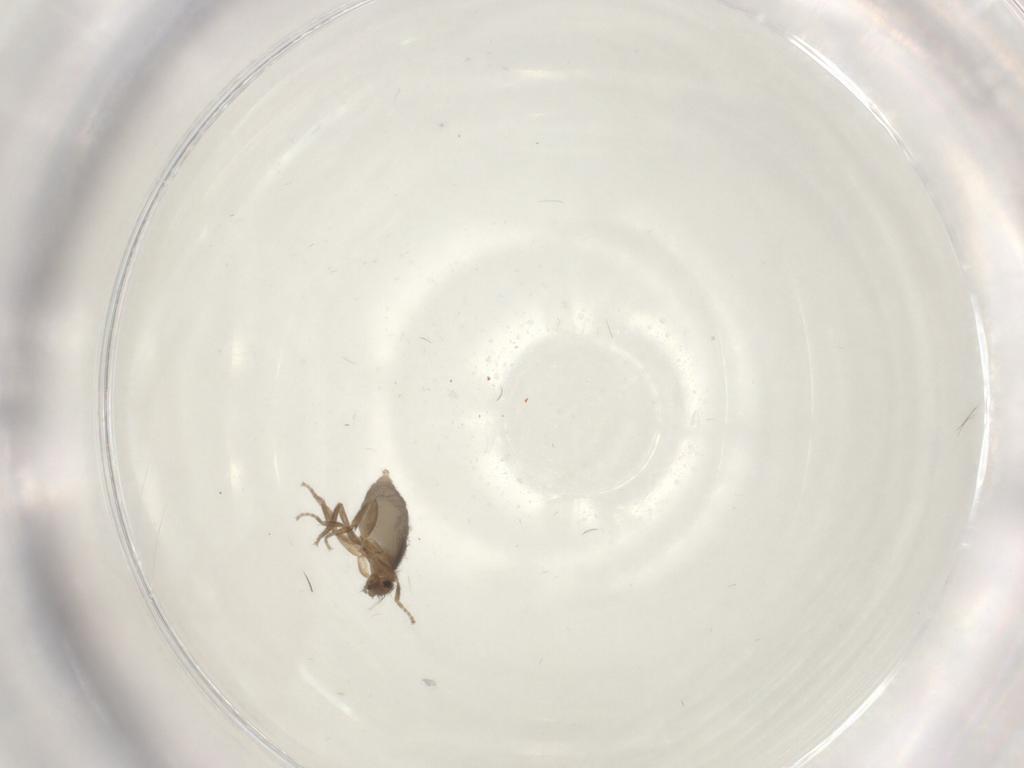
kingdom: Animalia
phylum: Arthropoda
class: Insecta
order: Diptera
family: Phoridae
